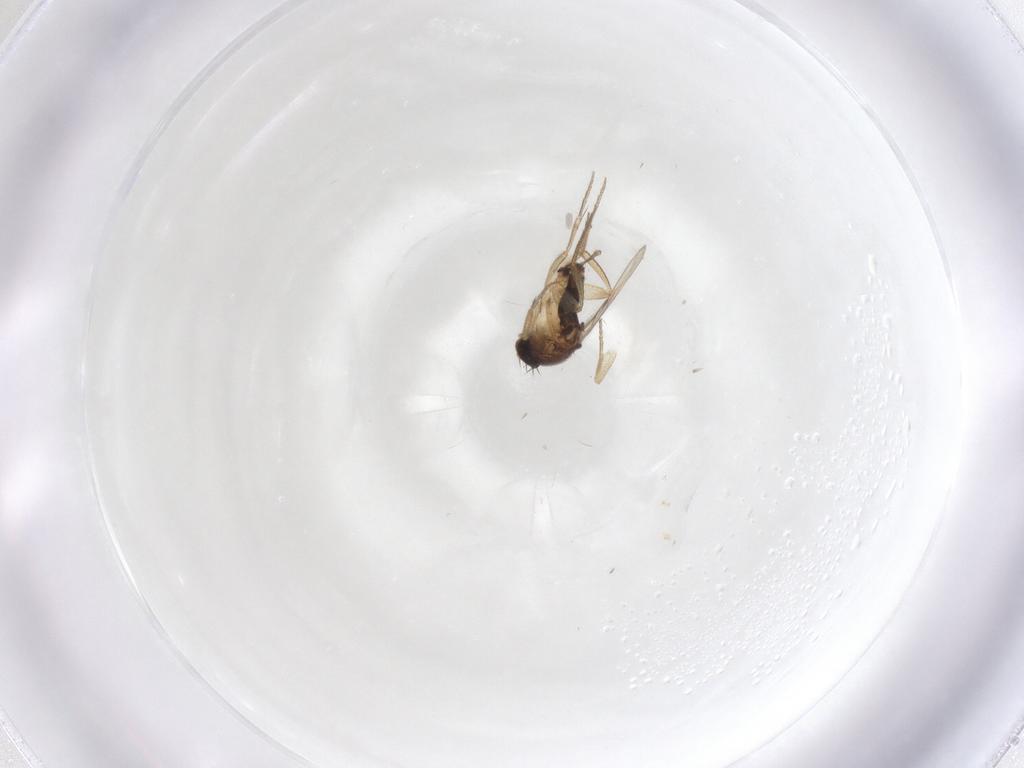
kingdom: Animalia
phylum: Arthropoda
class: Insecta
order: Diptera
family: Phoridae
